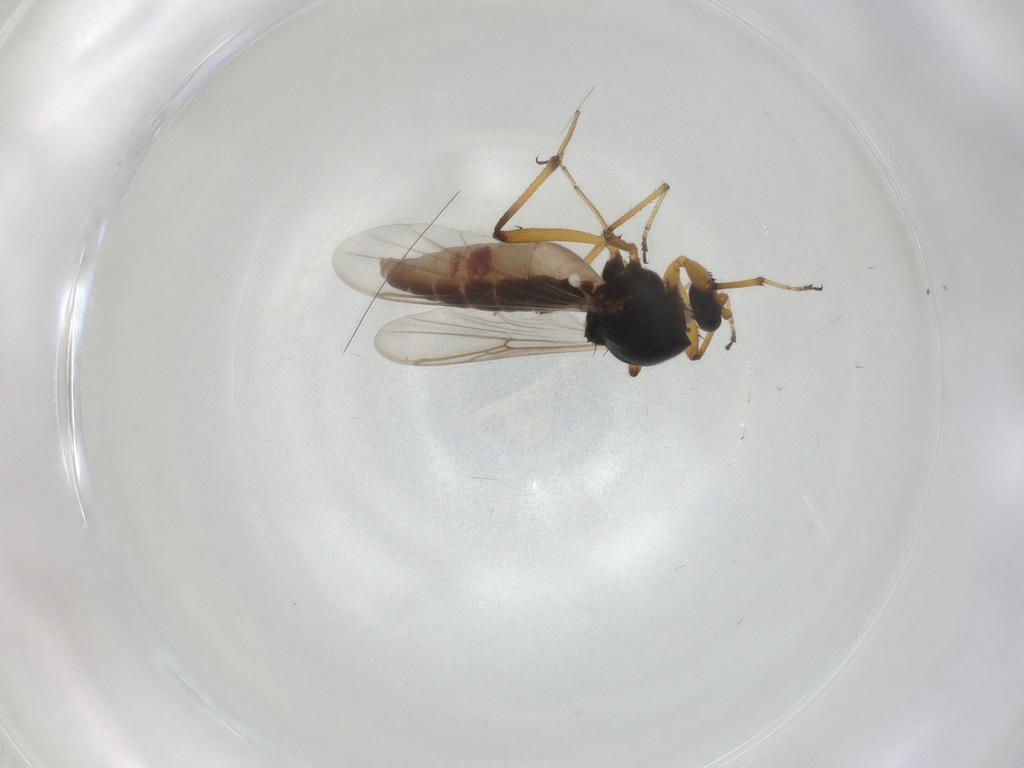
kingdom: Animalia
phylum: Arthropoda
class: Insecta
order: Diptera
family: Ceratopogonidae
